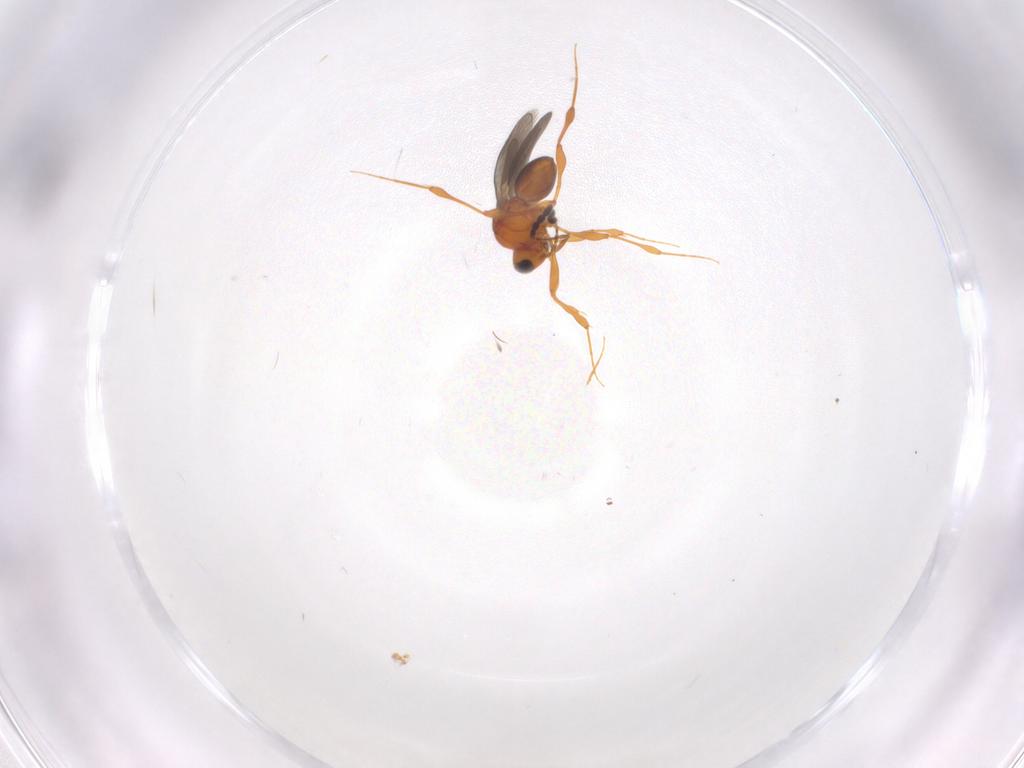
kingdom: Animalia
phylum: Arthropoda
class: Insecta
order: Hymenoptera
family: Platygastridae
